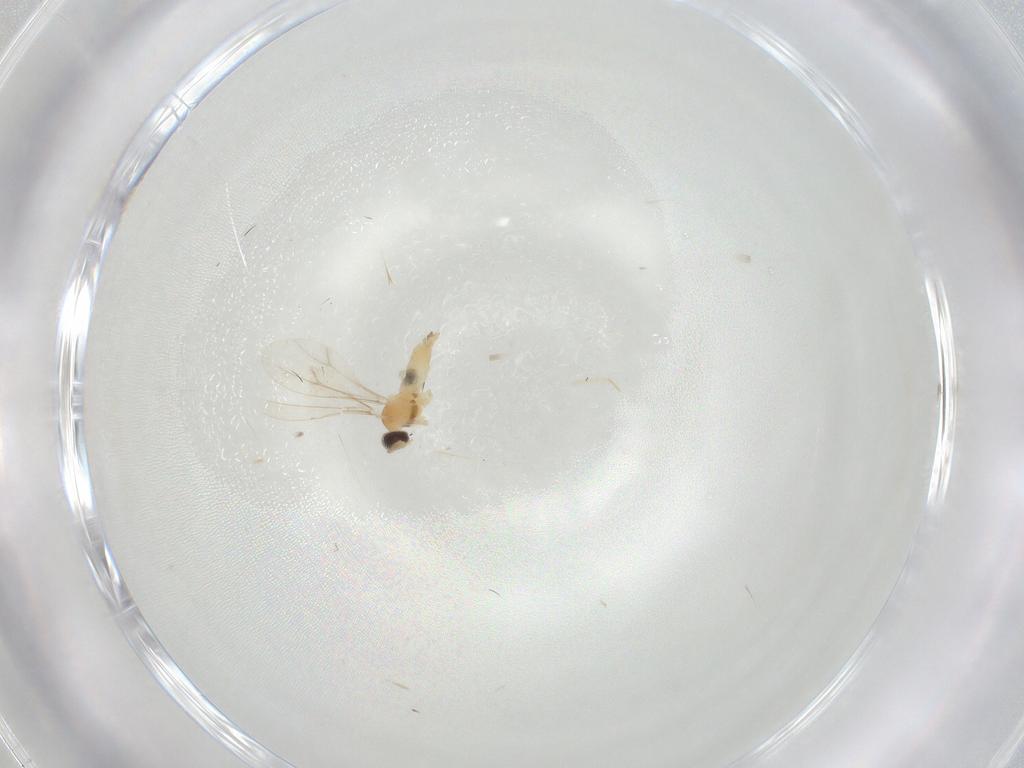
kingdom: Animalia
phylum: Arthropoda
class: Insecta
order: Diptera
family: Cecidomyiidae
